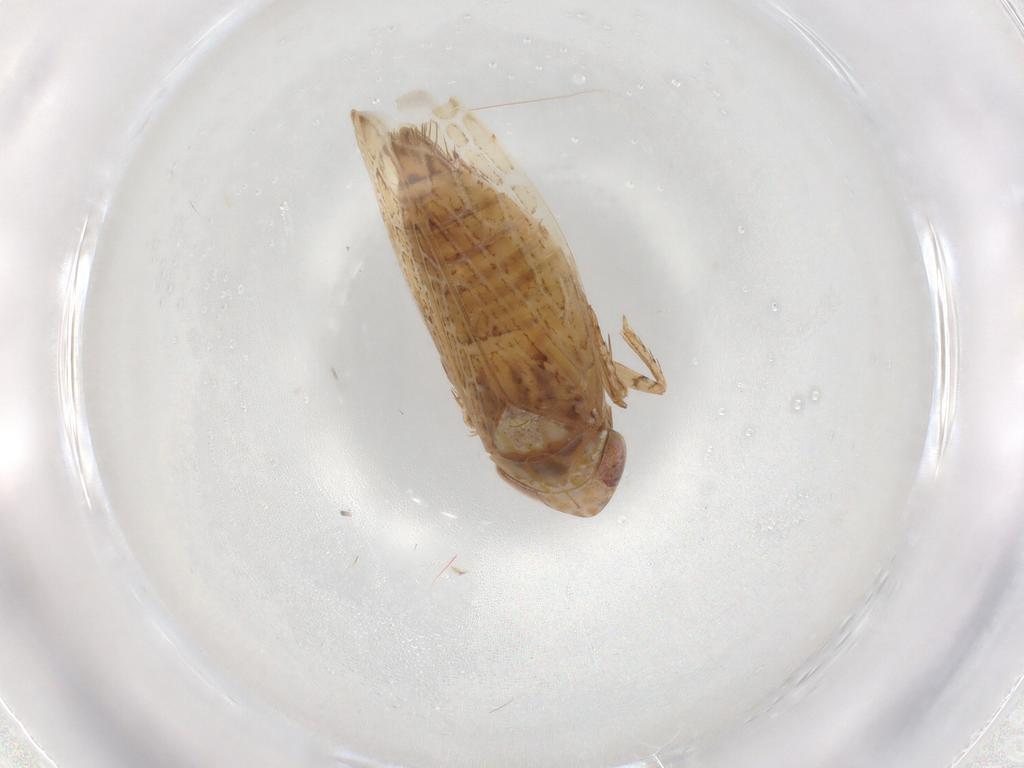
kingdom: Animalia
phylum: Arthropoda
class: Insecta
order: Hemiptera
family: Cicadellidae
